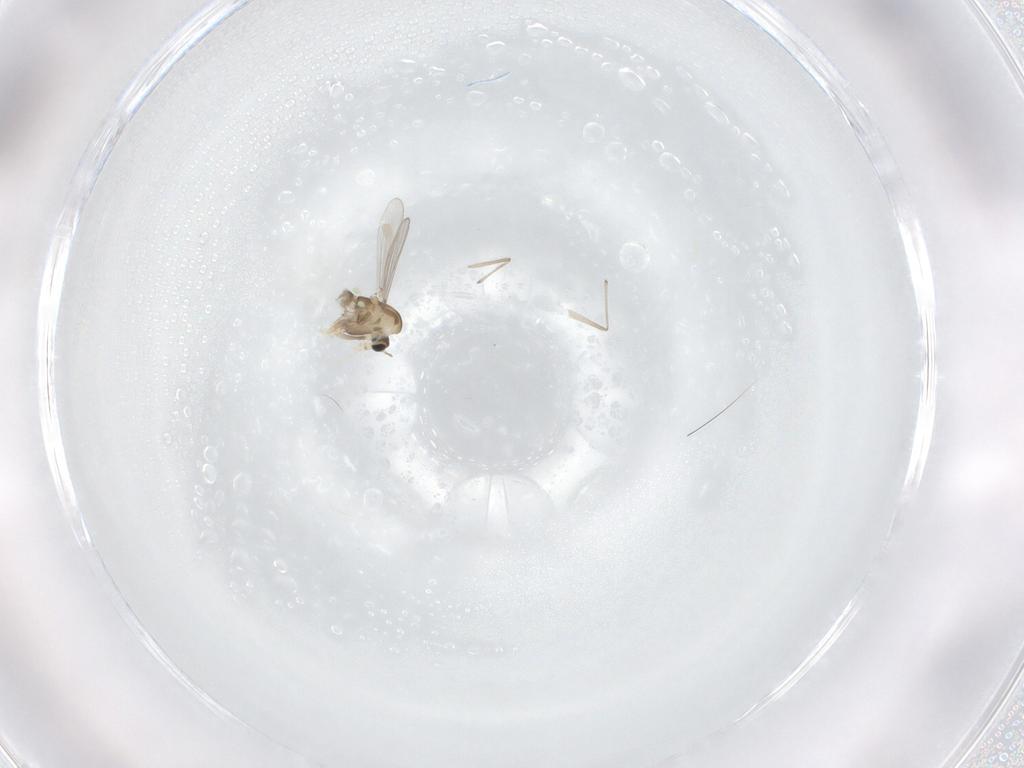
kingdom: Animalia
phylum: Arthropoda
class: Insecta
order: Diptera
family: Chironomidae
